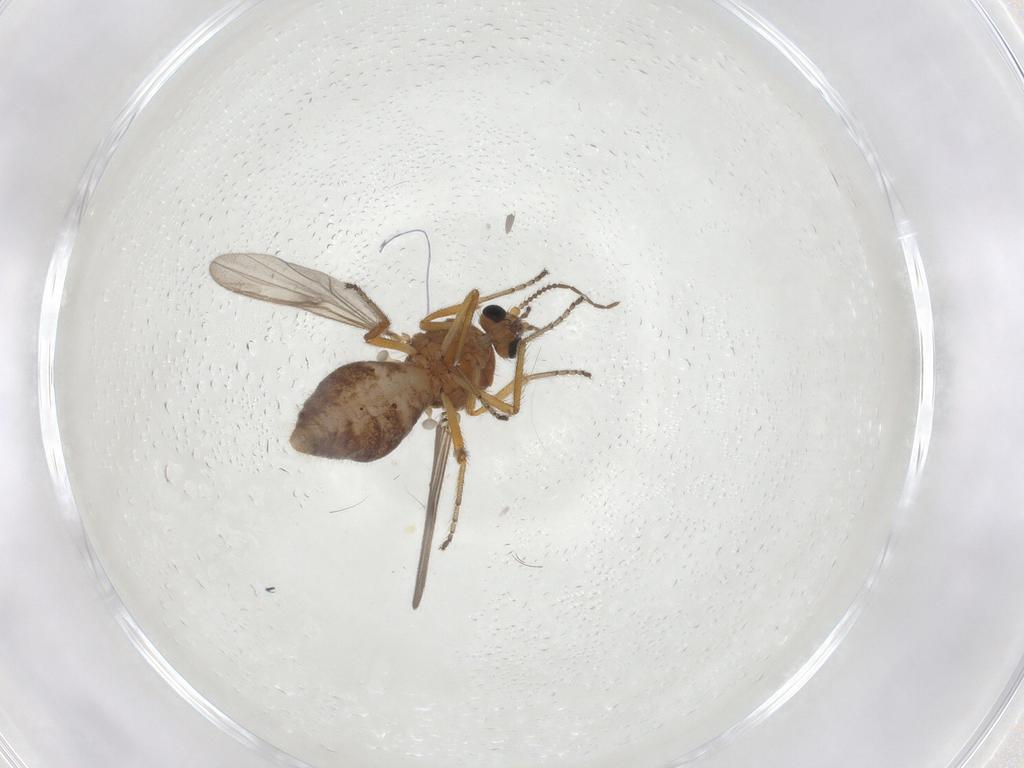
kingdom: Animalia
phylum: Arthropoda
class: Insecta
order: Diptera
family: Ceratopogonidae
